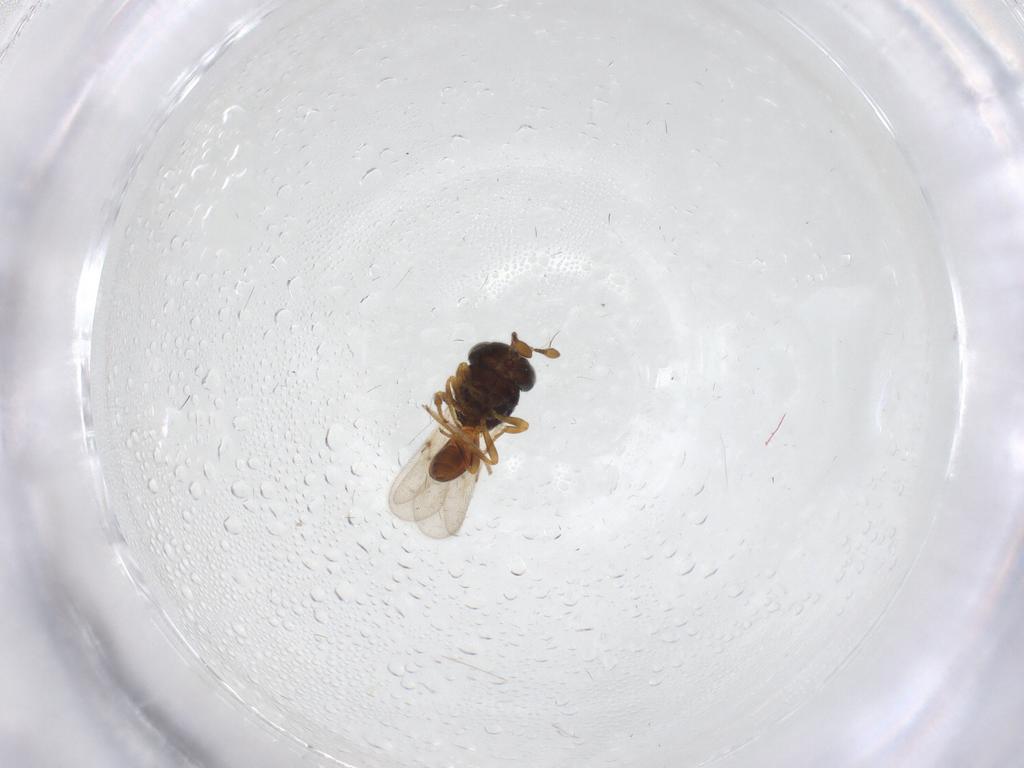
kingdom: Animalia
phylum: Arthropoda
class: Insecta
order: Hymenoptera
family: Scelionidae
